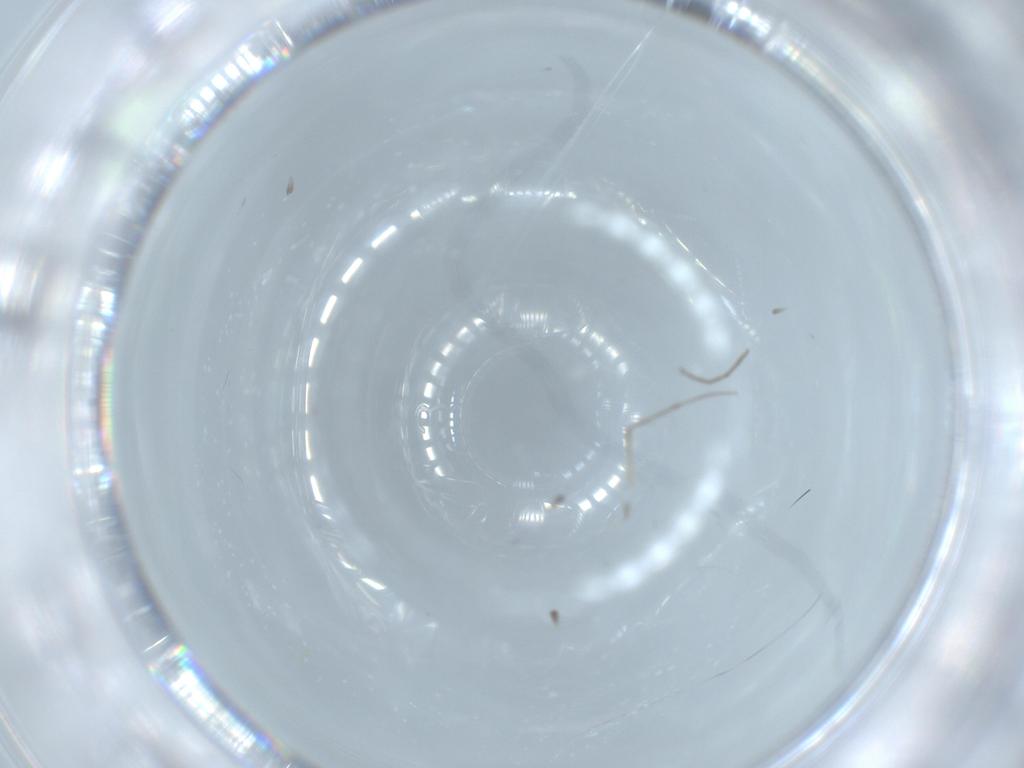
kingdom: Animalia
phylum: Arthropoda
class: Insecta
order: Diptera
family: Chironomidae
